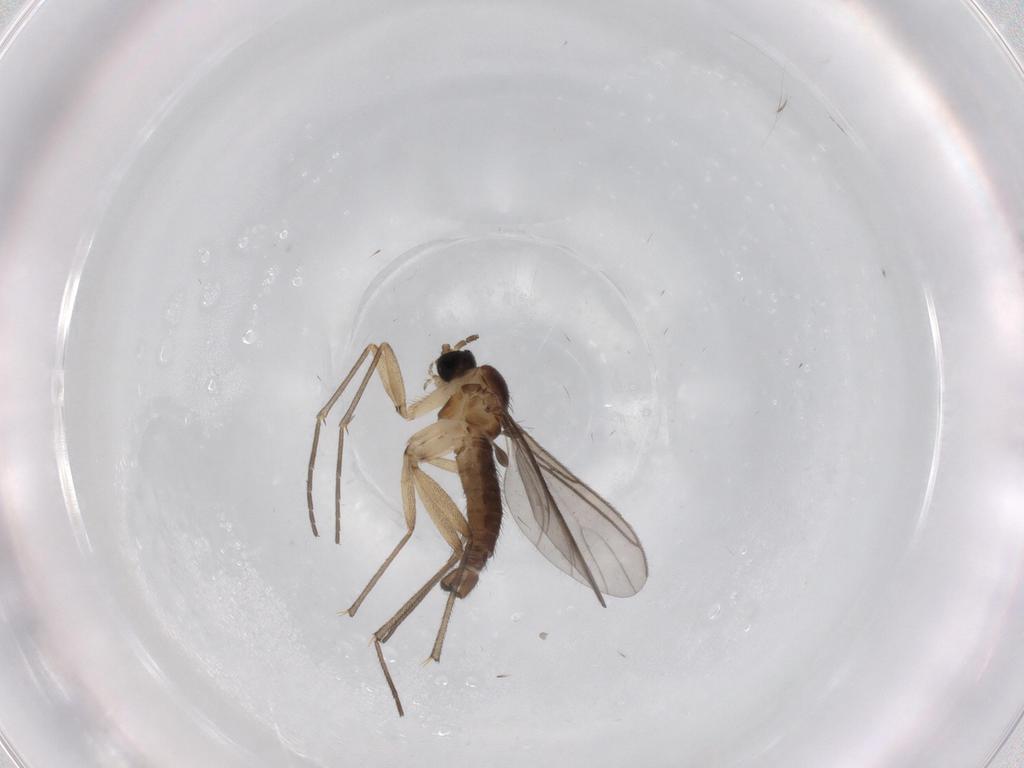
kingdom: Animalia
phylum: Arthropoda
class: Insecta
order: Diptera
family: Sciaridae
